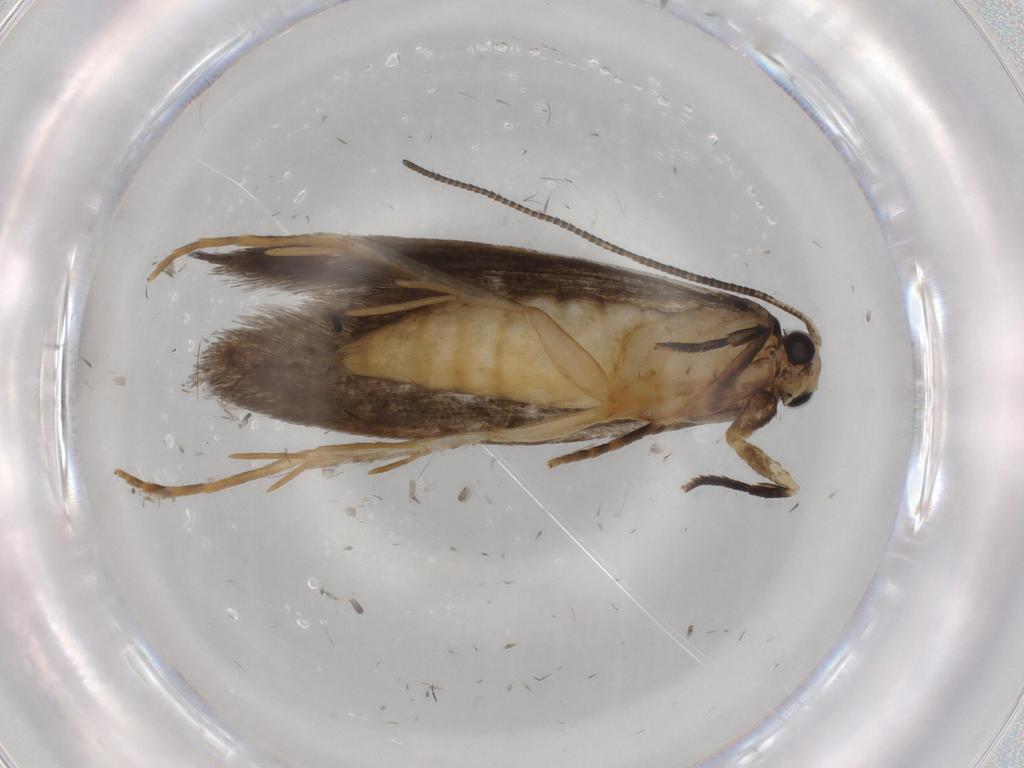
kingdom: Animalia
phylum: Arthropoda
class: Insecta
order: Lepidoptera
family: Tineidae
